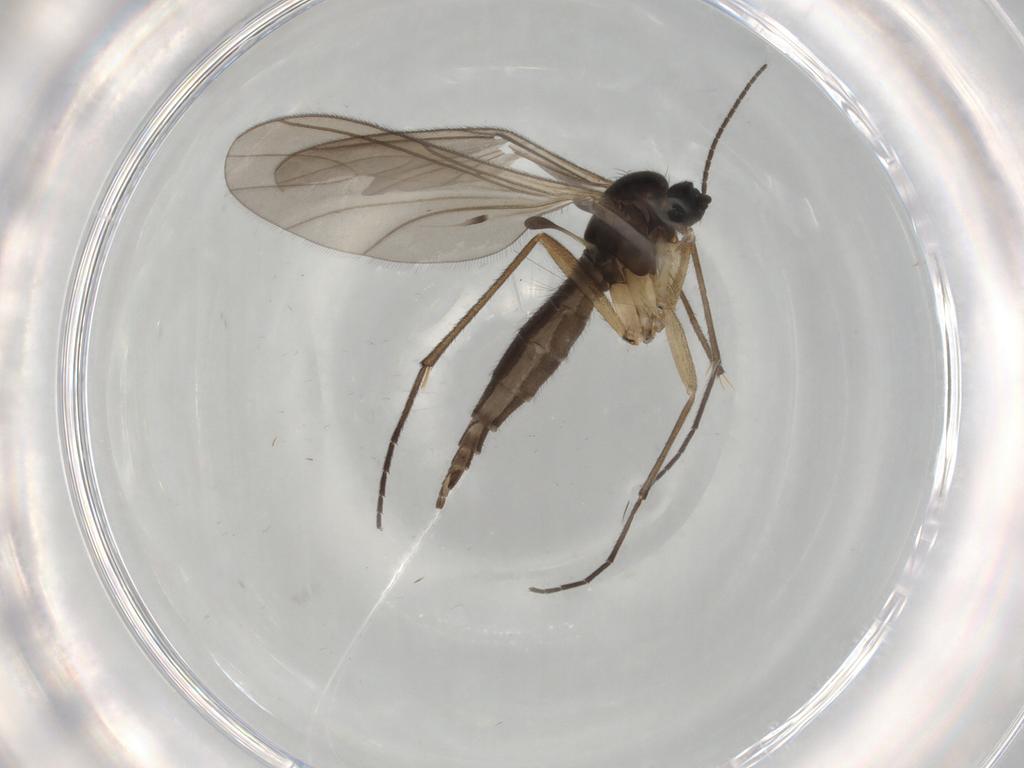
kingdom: Animalia
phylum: Arthropoda
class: Insecta
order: Diptera
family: Sciaridae
